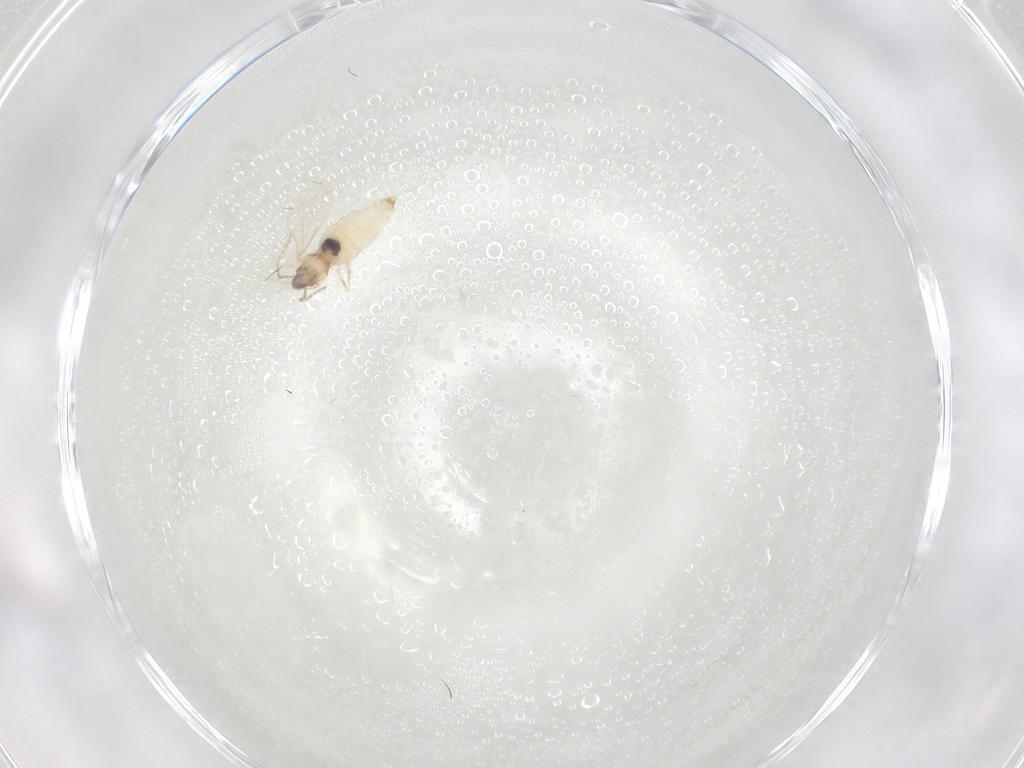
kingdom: Animalia
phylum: Arthropoda
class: Insecta
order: Diptera
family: Cecidomyiidae
